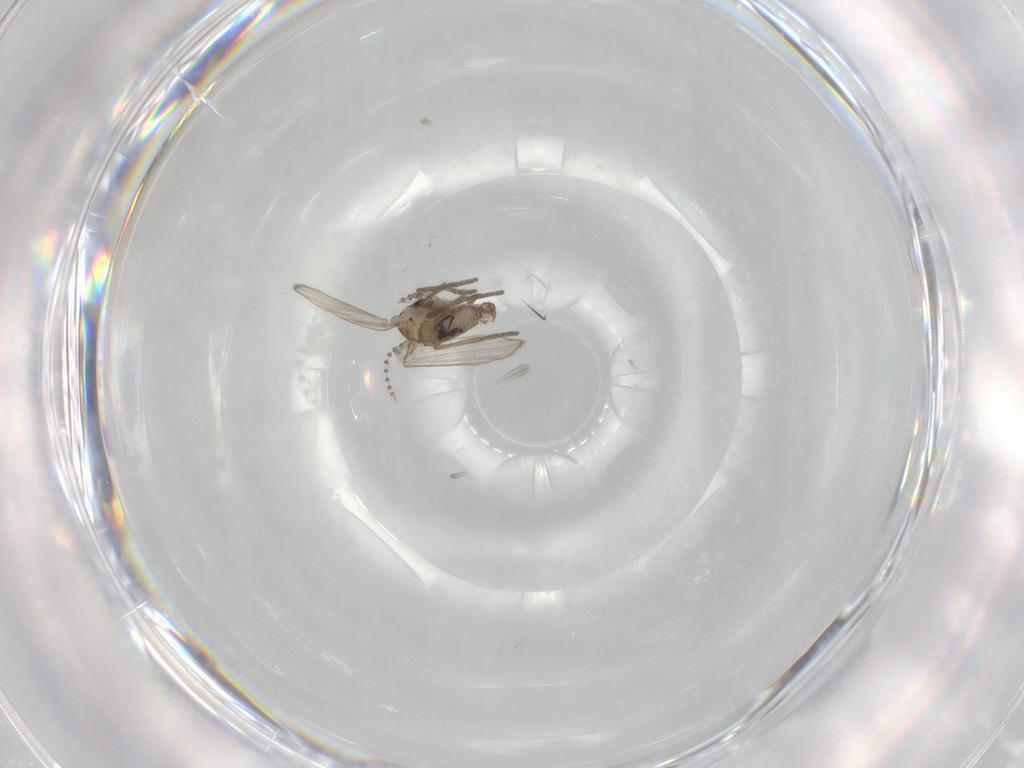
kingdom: Animalia
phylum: Arthropoda
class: Insecta
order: Diptera
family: Psychodidae
